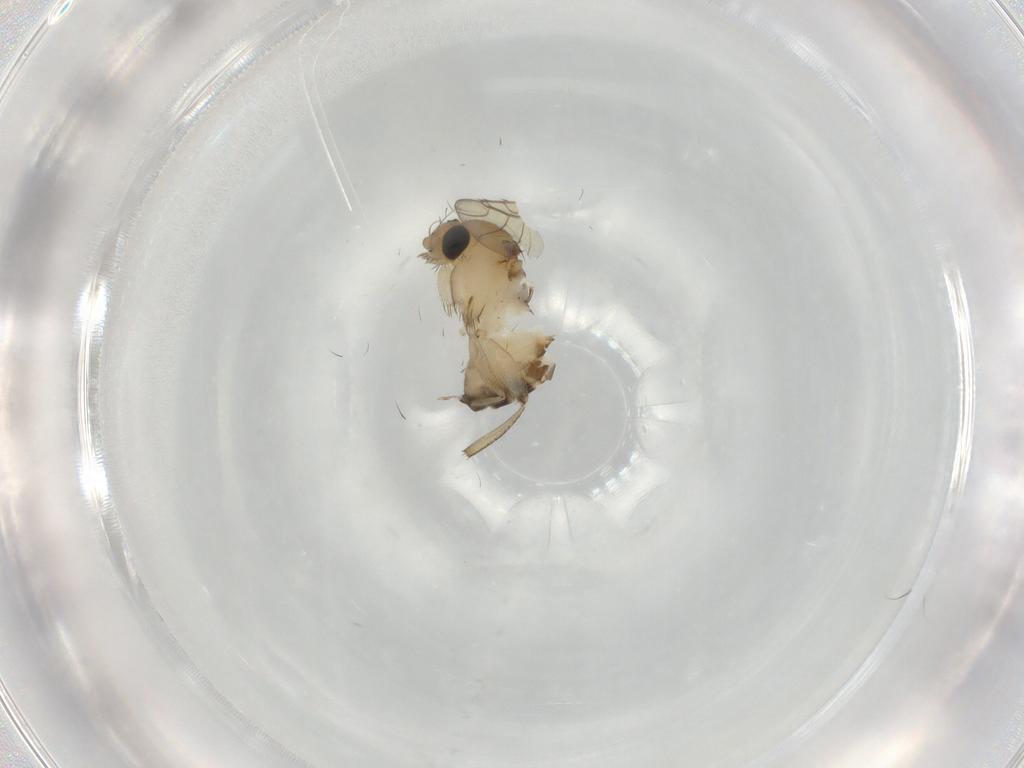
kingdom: Animalia
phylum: Arthropoda
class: Insecta
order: Diptera
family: Phoridae
